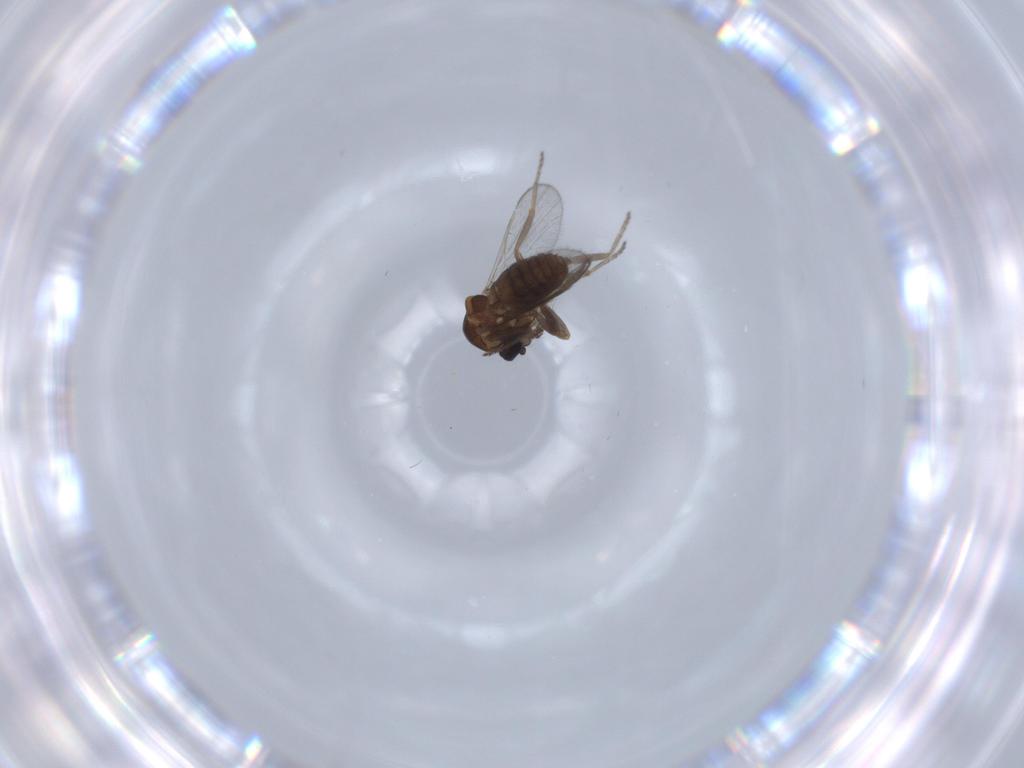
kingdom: Animalia
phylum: Arthropoda
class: Insecta
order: Diptera
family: Ceratopogonidae
